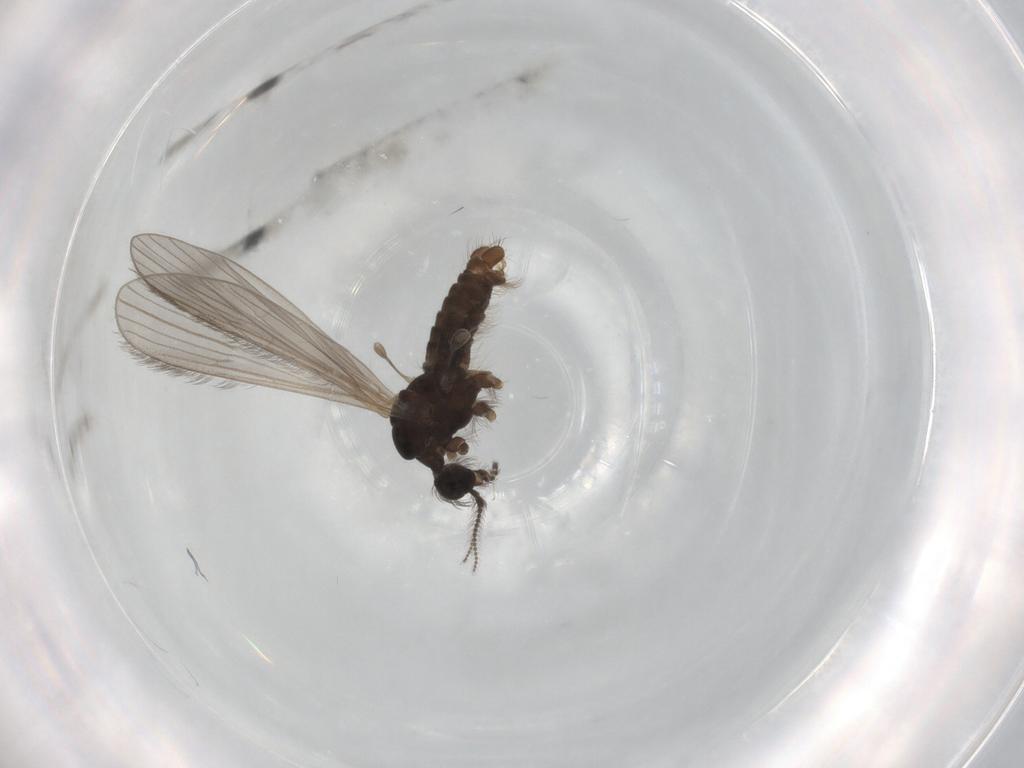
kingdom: Animalia
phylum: Arthropoda
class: Insecta
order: Diptera
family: Limoniidae
